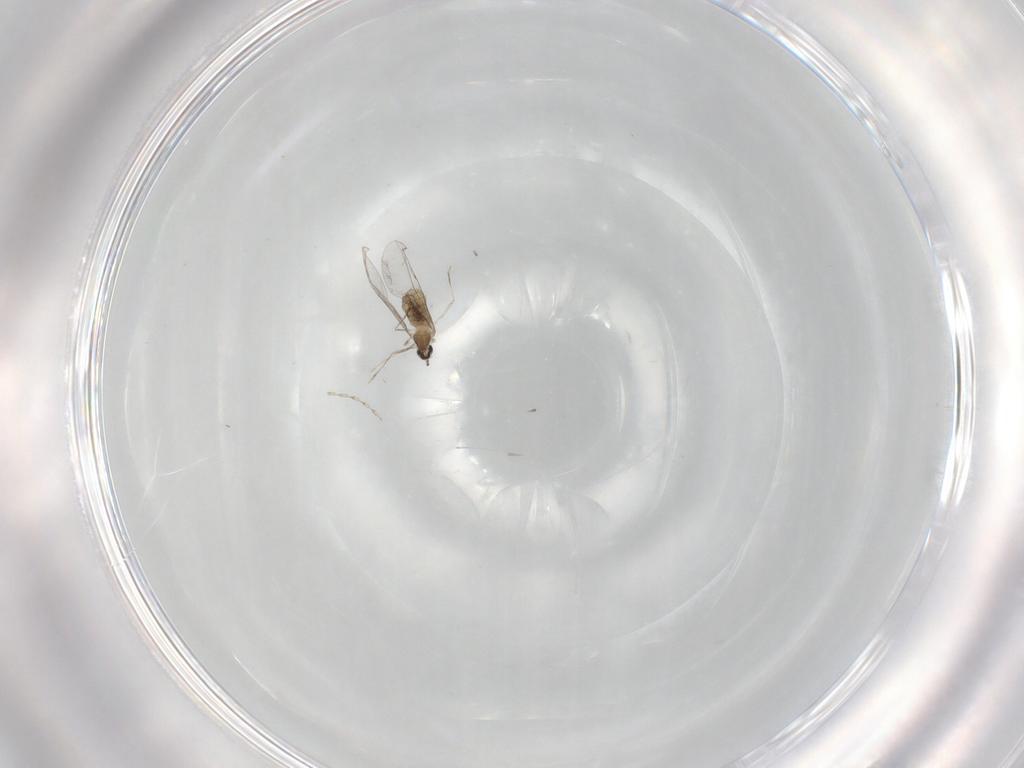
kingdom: Animalia
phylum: Arthropoda
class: Insecta
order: Diptera
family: Cecidomyiidae
